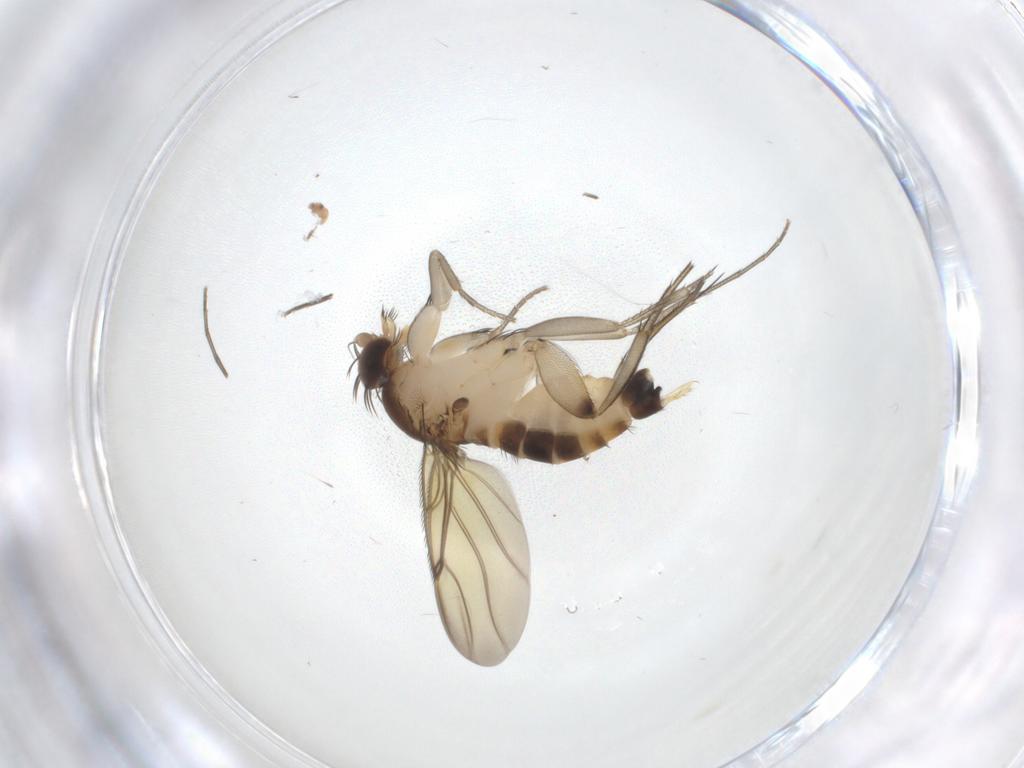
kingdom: Animalia
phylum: Arthropoda
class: Insecta
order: Diptera
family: Phoridae
